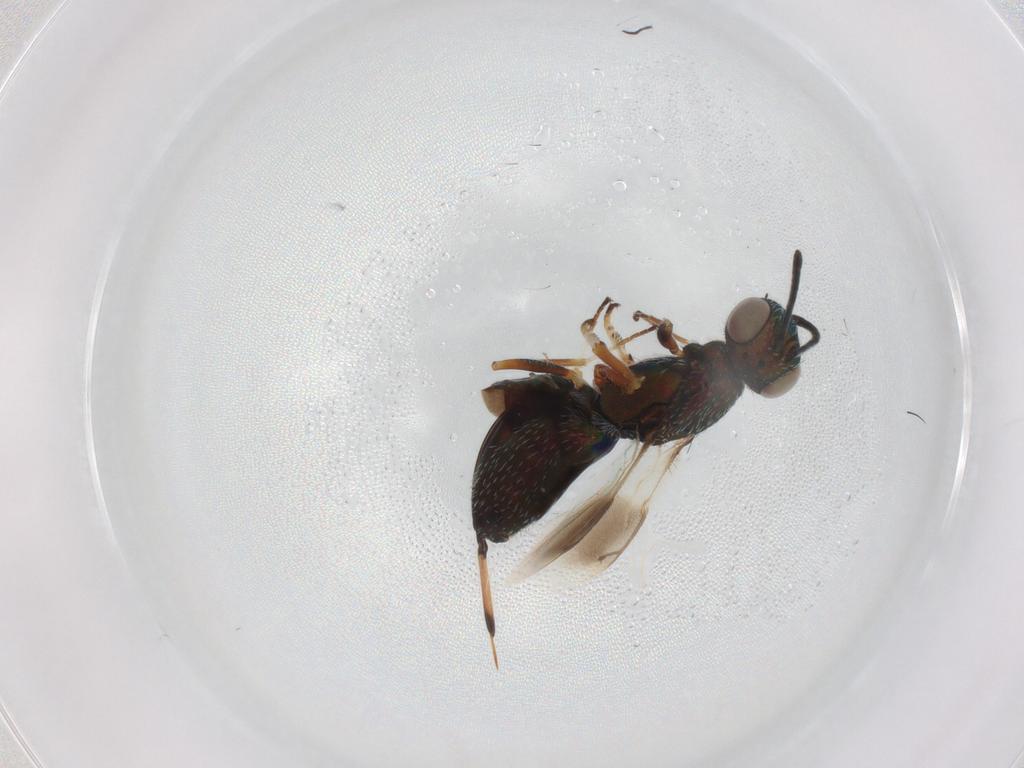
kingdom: Animalia
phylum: Arthropoda
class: Insecta
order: Hymenoptera
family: Eupelmidae
